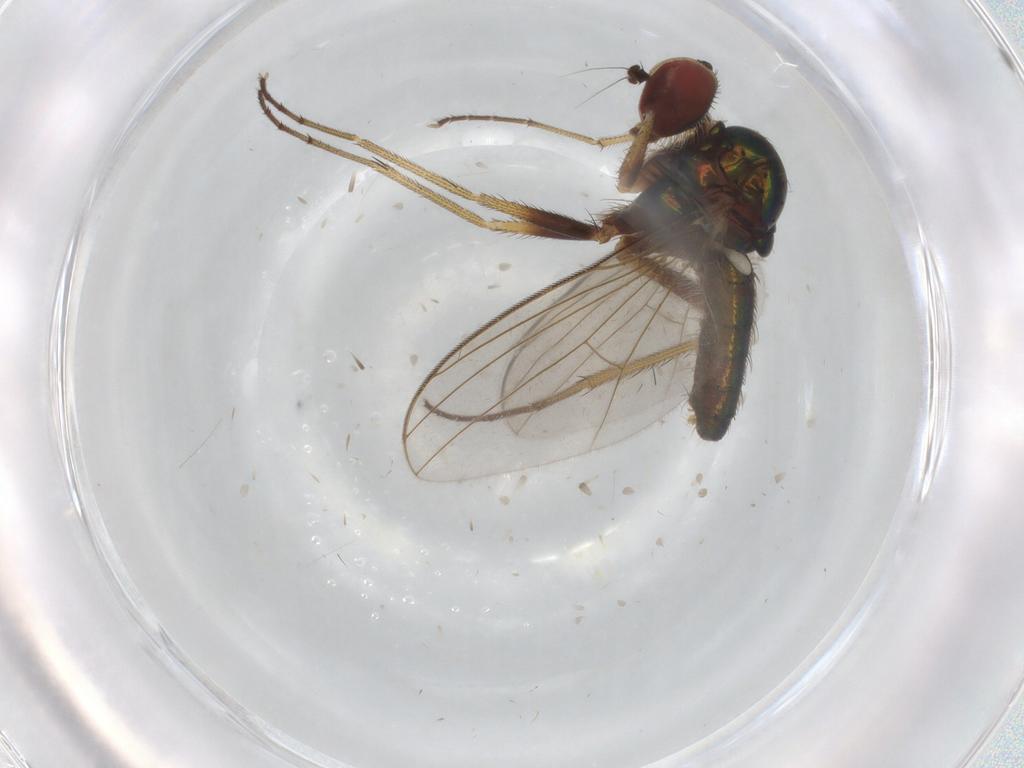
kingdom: Animalia
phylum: Arthropoda
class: Insecta
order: Diptera
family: Dolichopodidae
